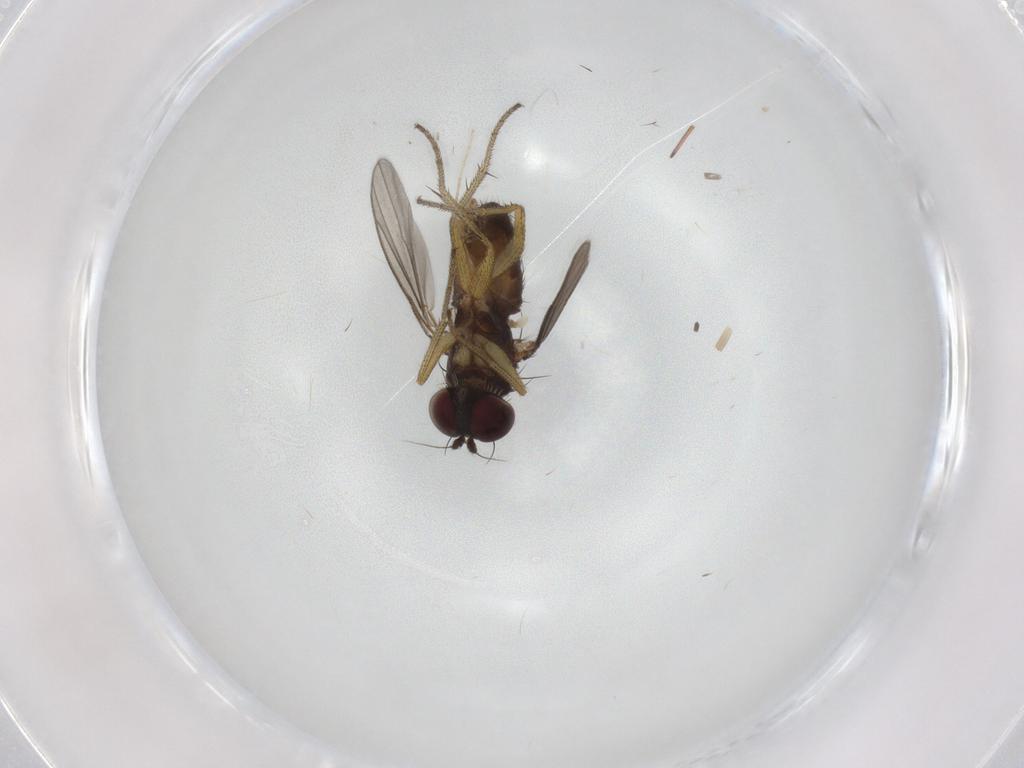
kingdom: Animalia
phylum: Arthropoda
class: Insecta
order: Diptera
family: Dolichopodidae
